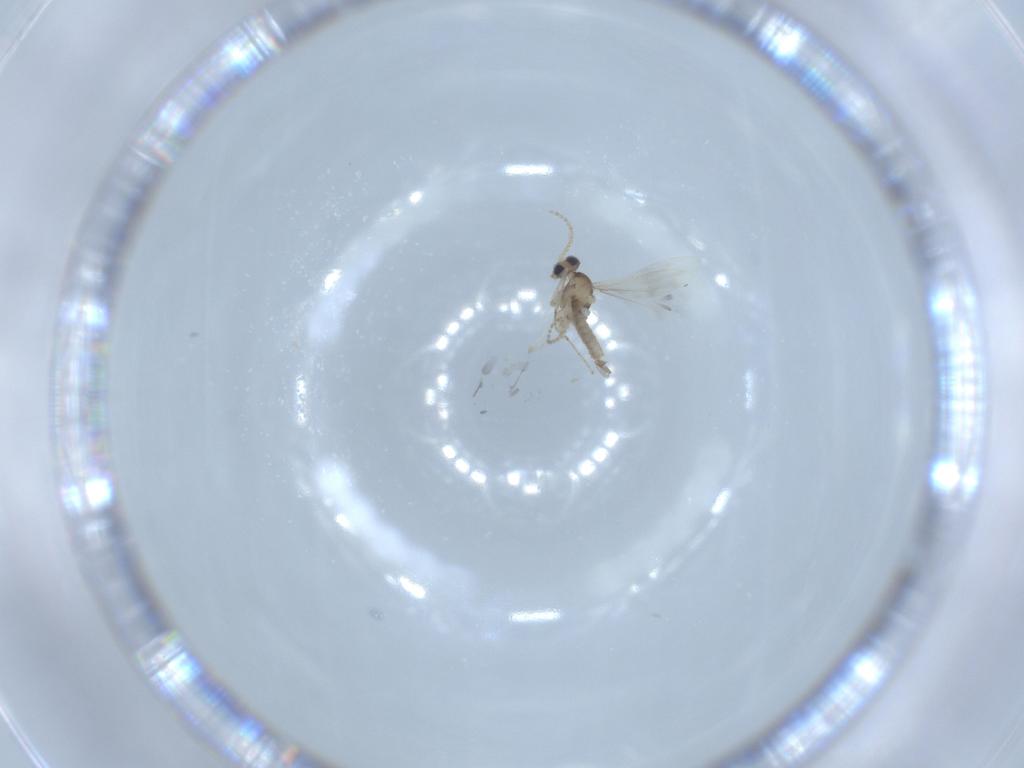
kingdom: Animalia
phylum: Arthropoda
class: Insecta
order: Diptera
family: Cecidomyiidae
